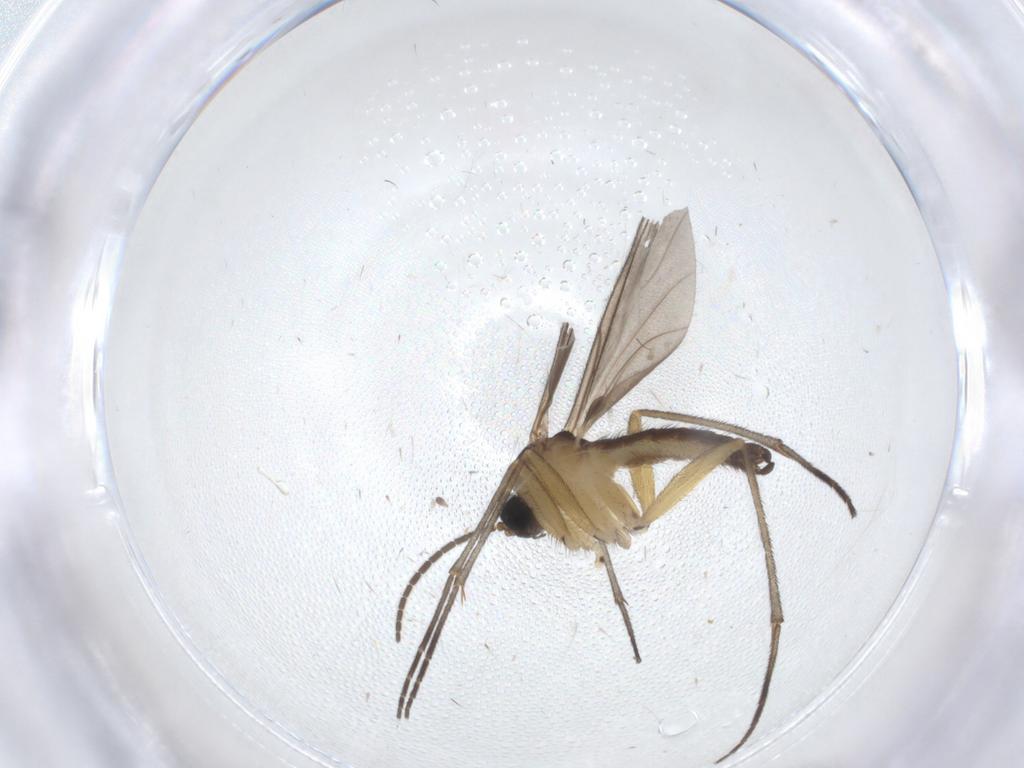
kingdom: Animalia
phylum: Arthropoda
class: Insecta
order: Diptera
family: Sciaridae
